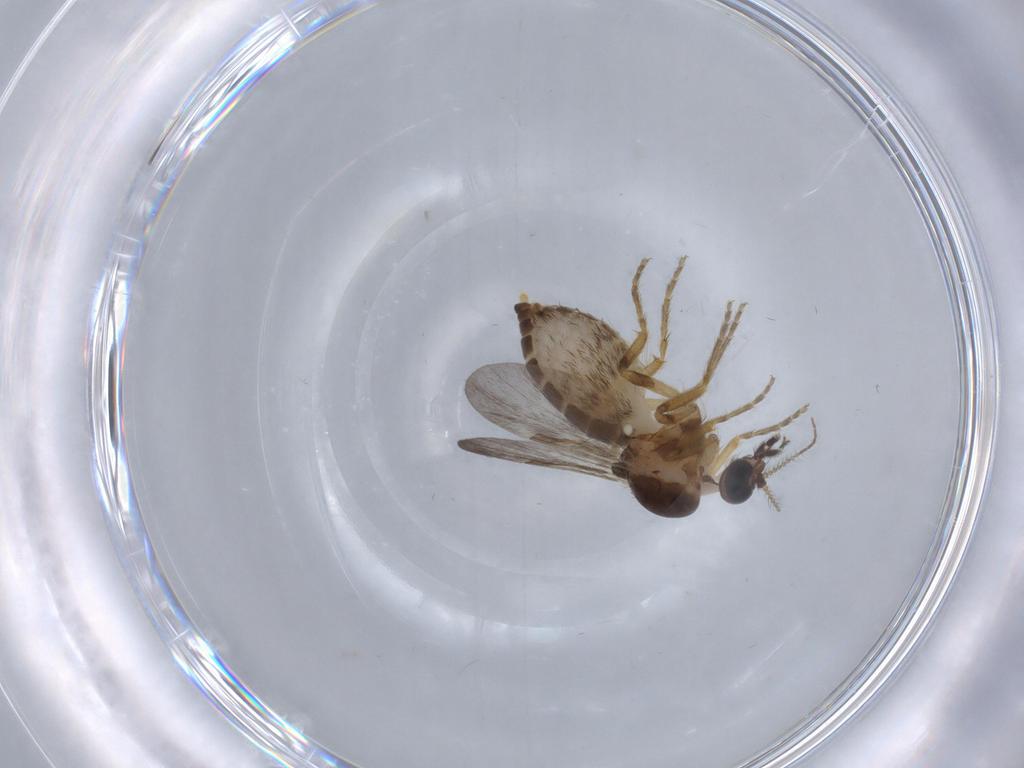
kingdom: Animalia
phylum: Arthropoda
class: Insecta
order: Diptera
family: Ceratopogonidae
